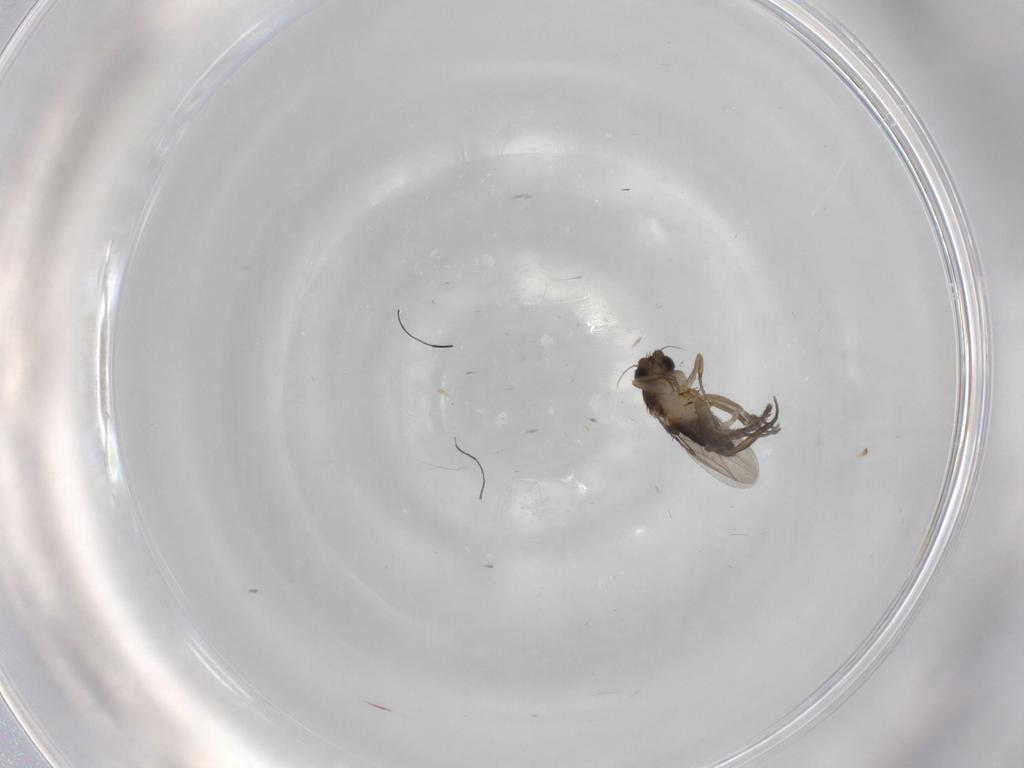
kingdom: Animalia
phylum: Arthropoda
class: Insecta
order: Diptera
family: Phoridae
